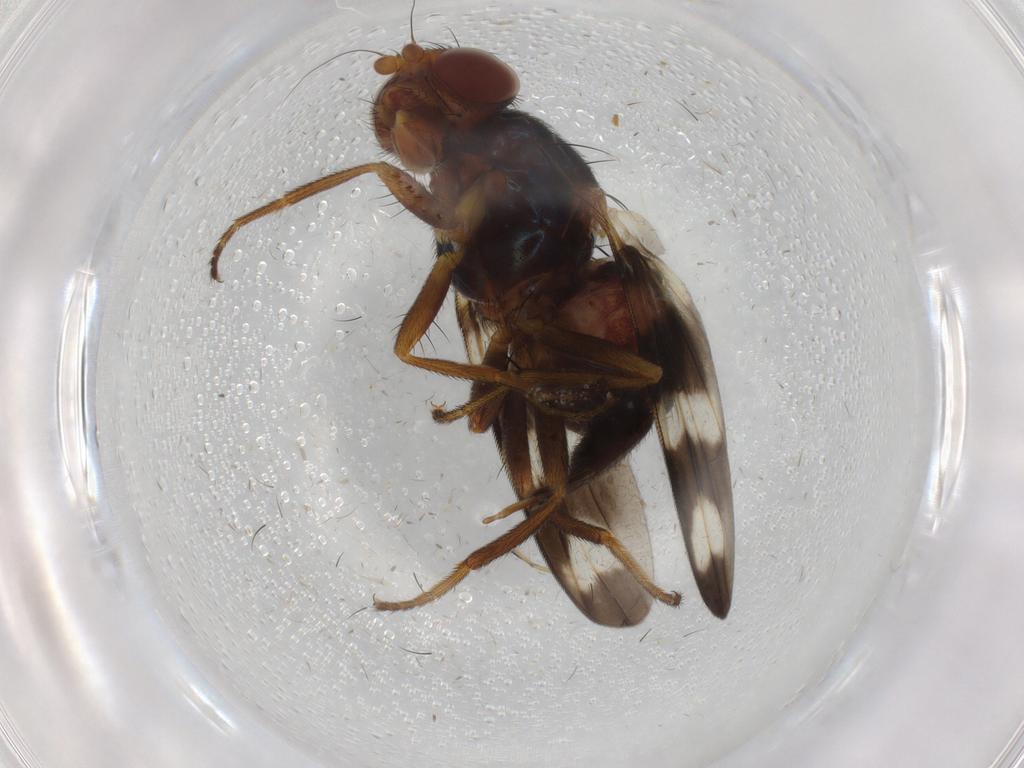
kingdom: Animalia
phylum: Arthropoda
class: Insecta
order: Diptera
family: Ulidiidae
